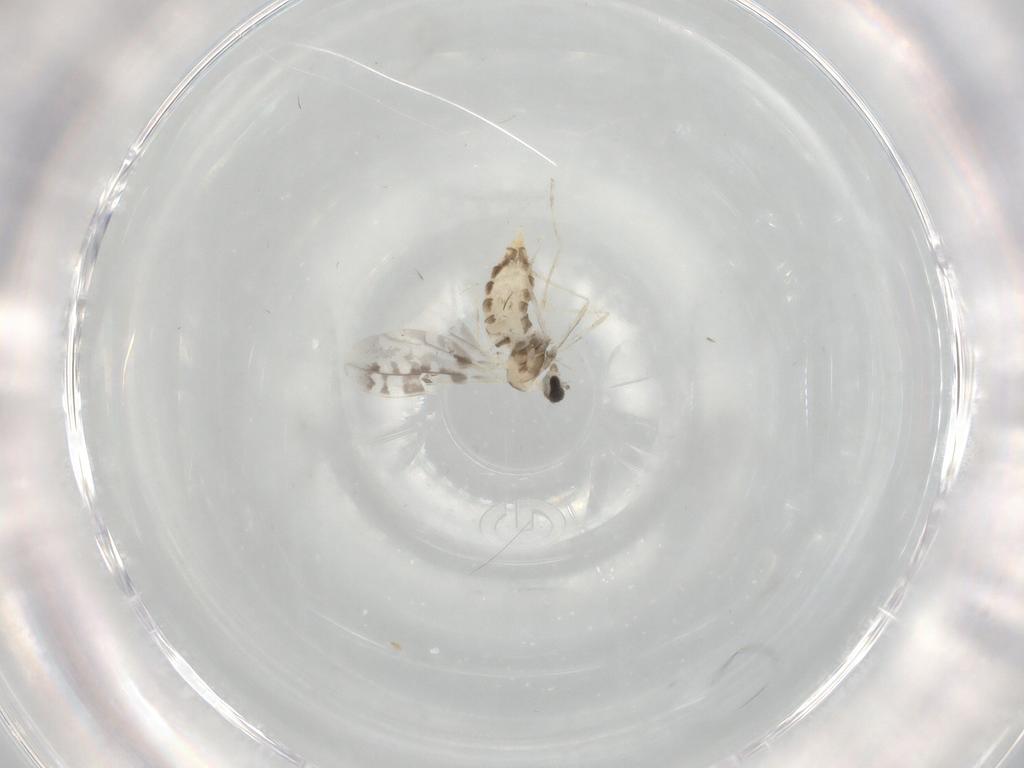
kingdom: Animalia
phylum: Arthropoda
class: Insecta
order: Diptera
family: Cecidomyiidae
